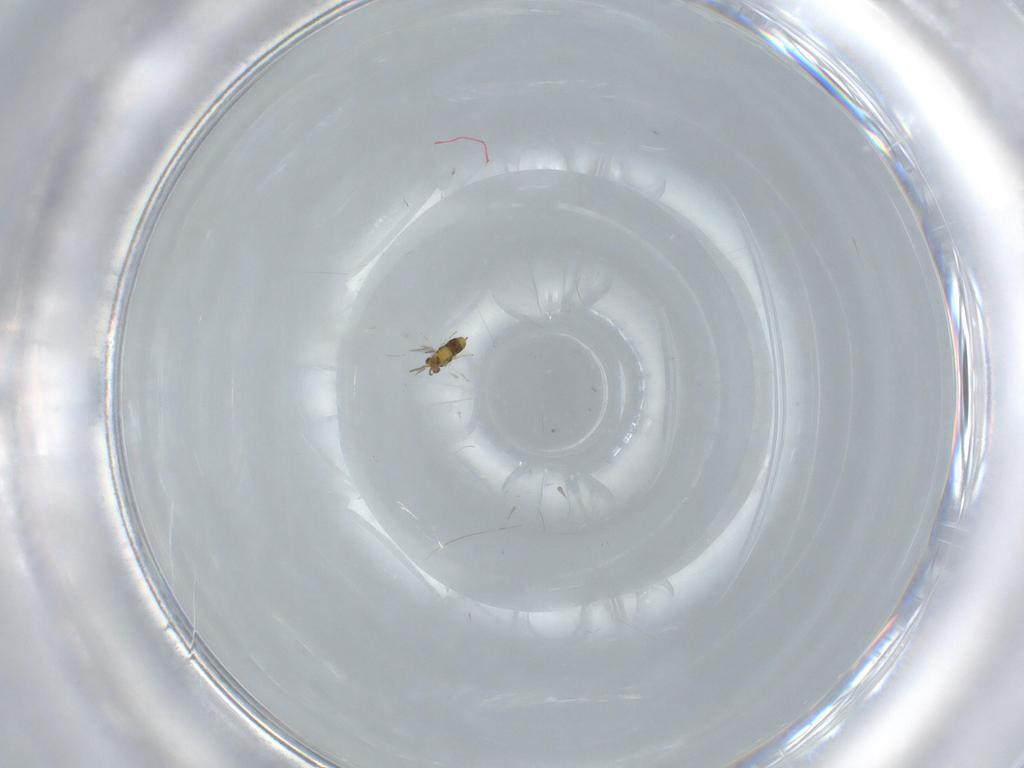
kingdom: Animalia
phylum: Arthropoda
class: Insecta
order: Hymenoptera
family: Aphelinidae
